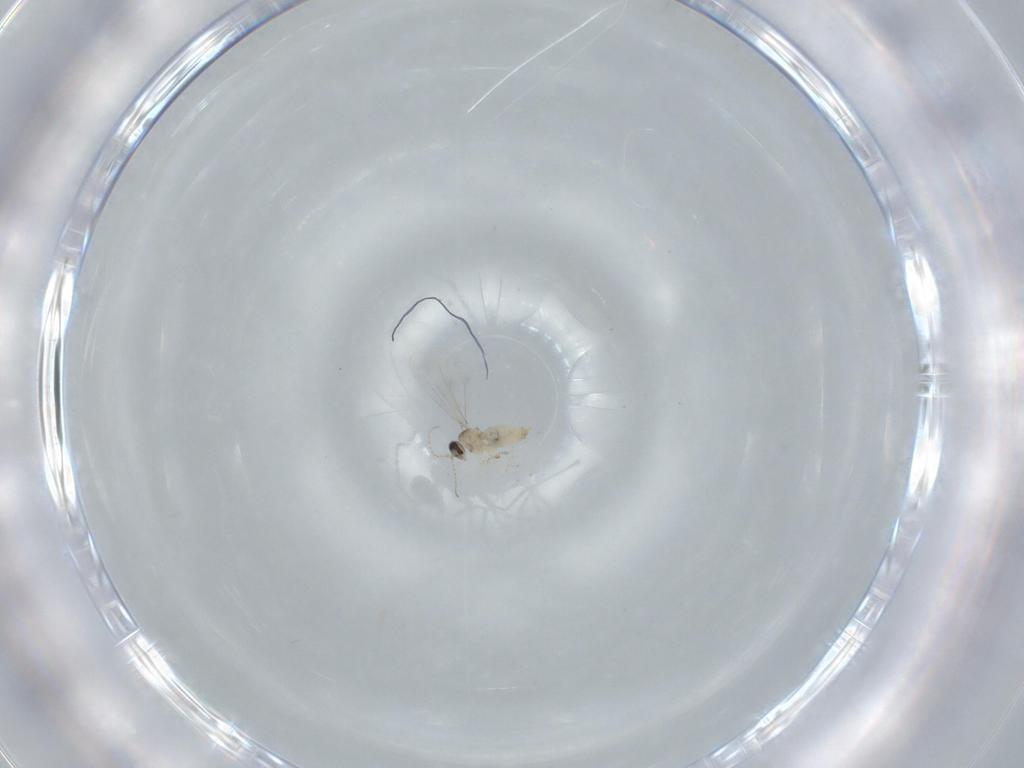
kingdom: Animalia
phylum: Arthropoda
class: Insecta
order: Diptera
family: Cecidomyiidae
